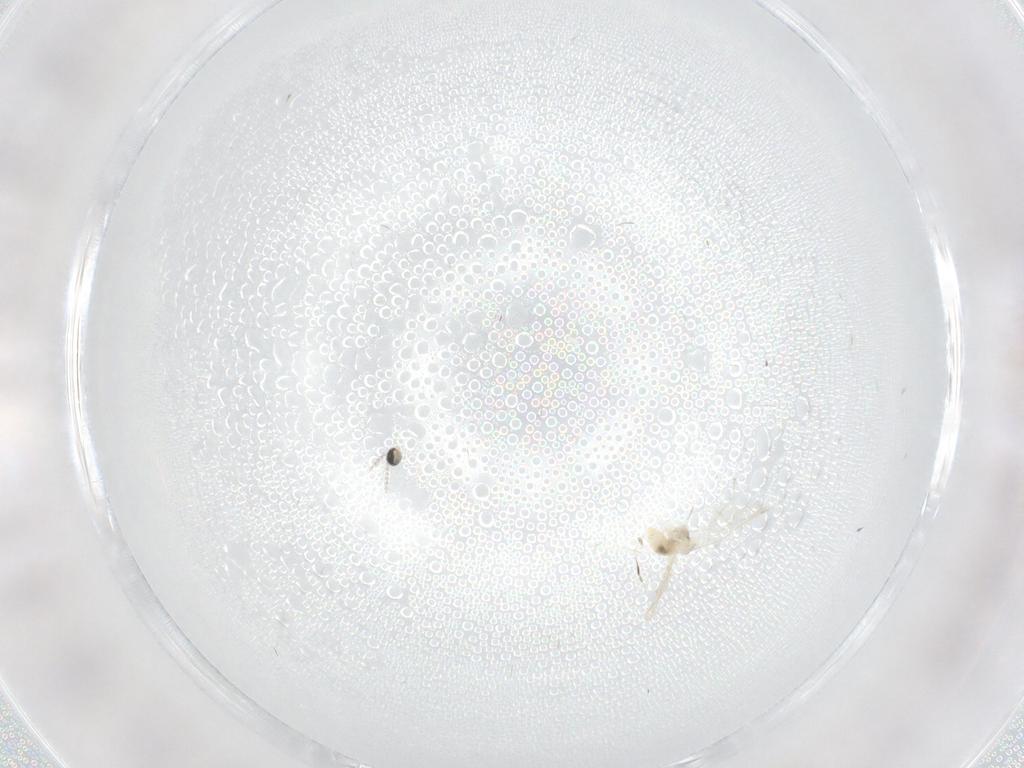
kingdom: Animalia
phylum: Arthropoda
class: Insecta
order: Diptera
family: Cecidomyiidae
